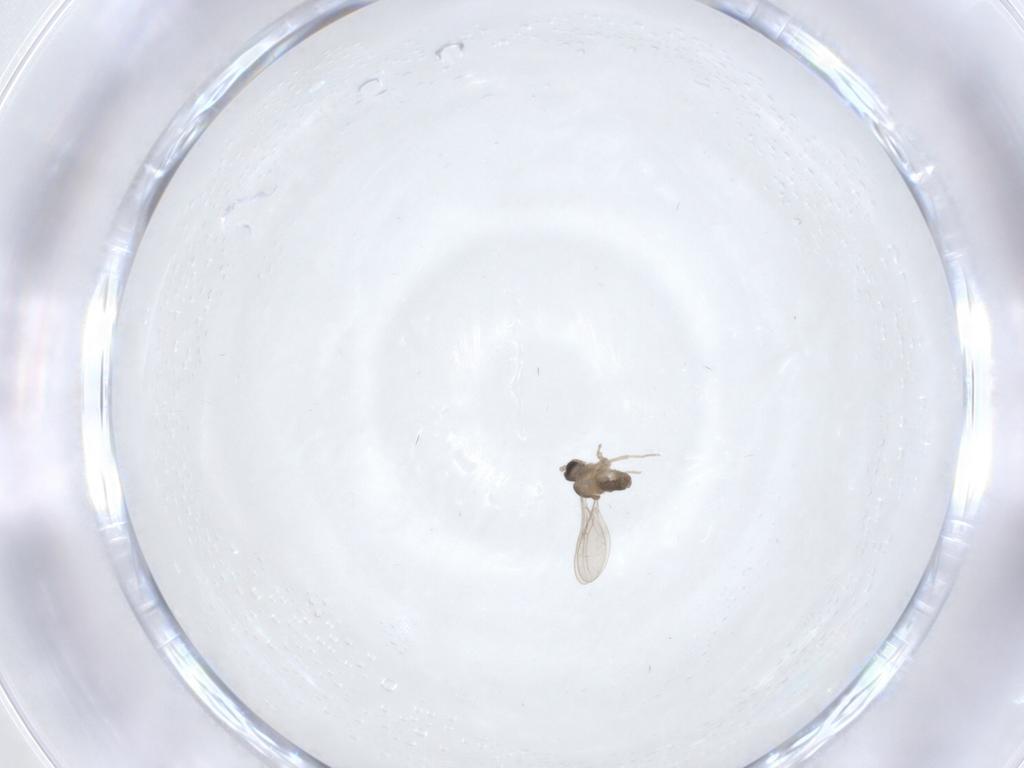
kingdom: Animalia
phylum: Arthropoda
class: Insecta
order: Diptera
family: Cecidomyiidae
